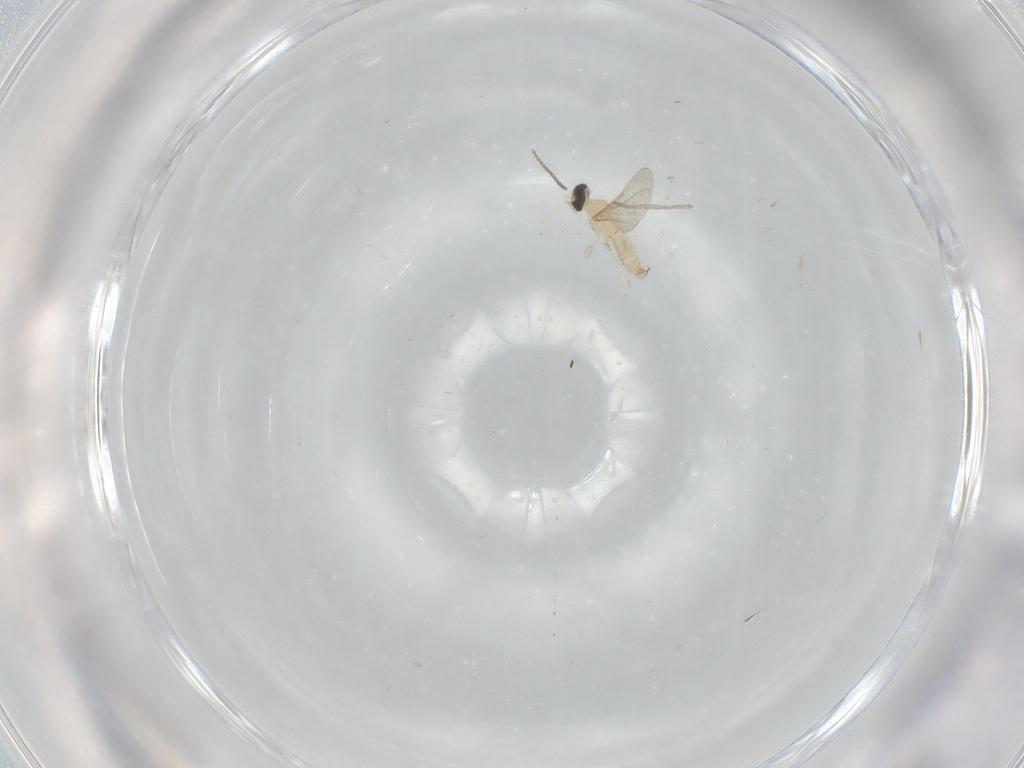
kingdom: Animalia
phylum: Arthropoda
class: Insecta
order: Diptera
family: Cecidomyiidae
